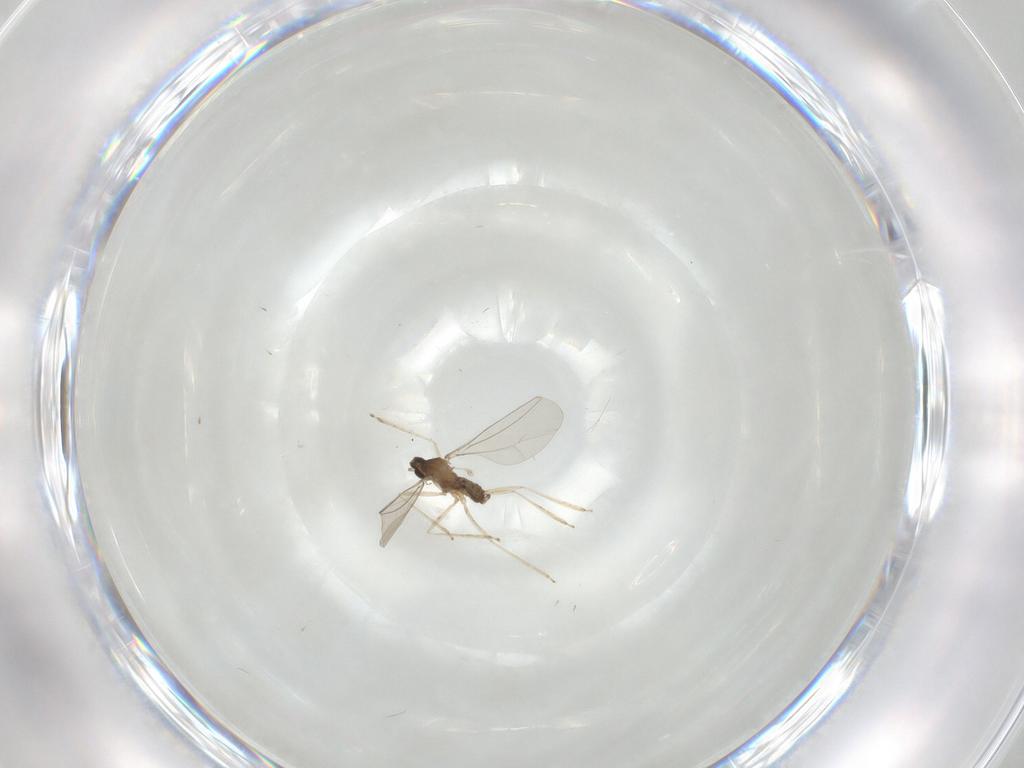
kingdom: Animalia
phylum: Arthropoda
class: Insecta
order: Diptera
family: Cecidomyiidae
